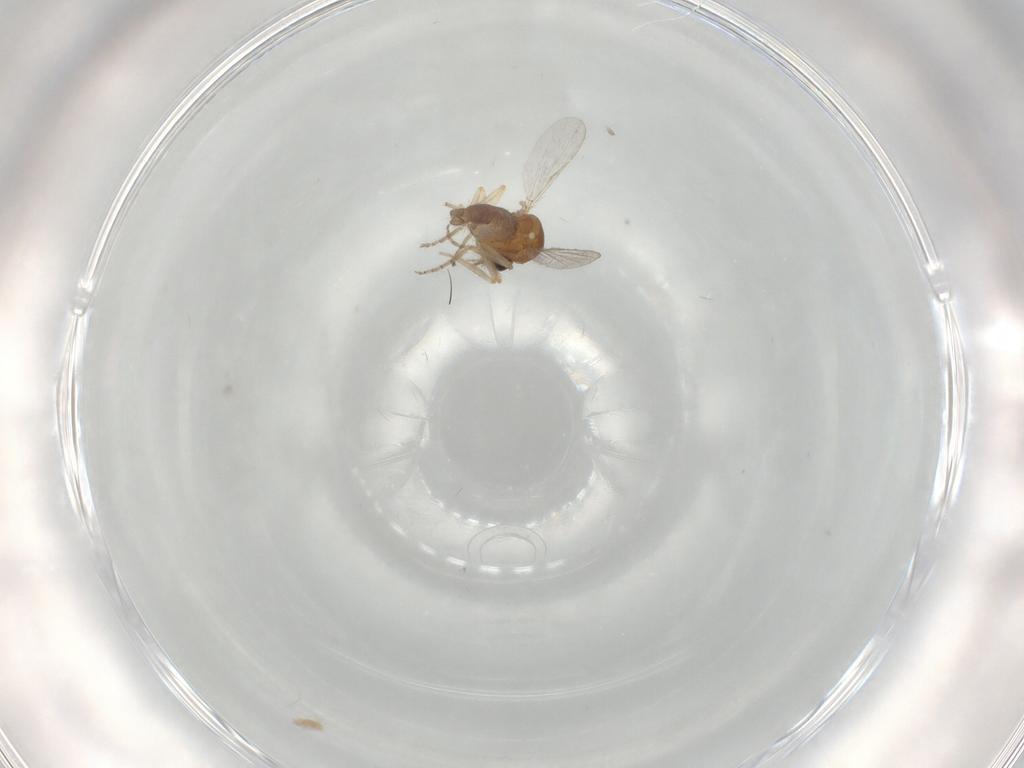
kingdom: Animalia
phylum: Arthropoda
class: Insecta
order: Diptera
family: Ceratopogonidae
